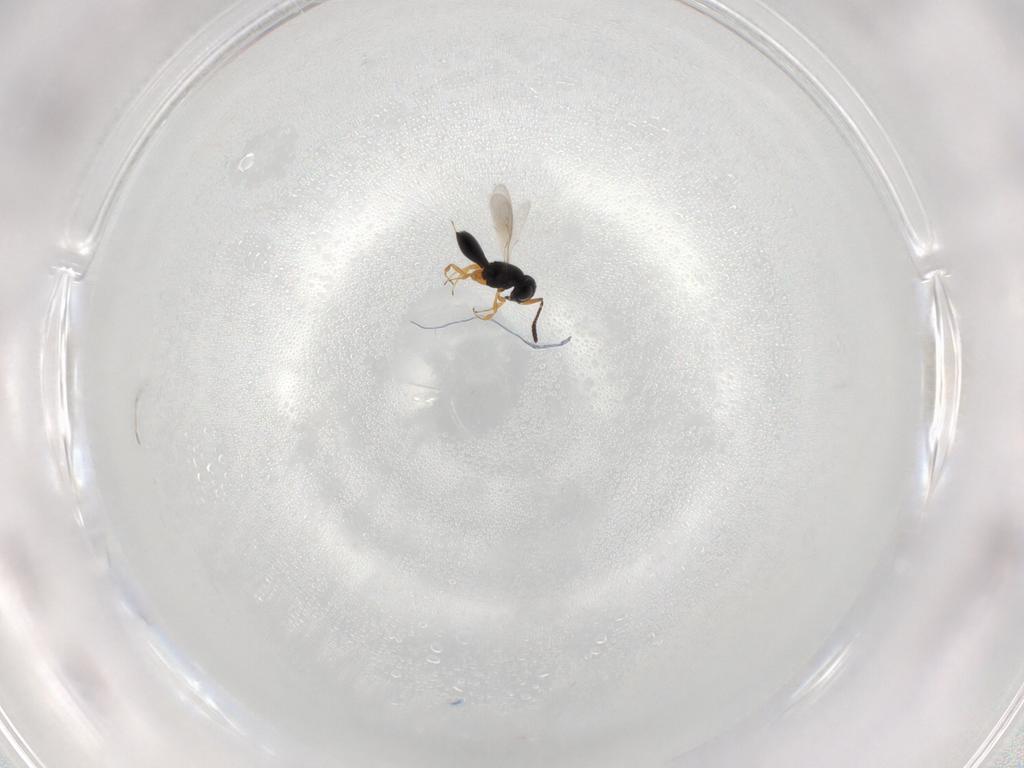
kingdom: Animalia
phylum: Arthropoda
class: Insecta
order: Hymenoptera
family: Scelionidae
